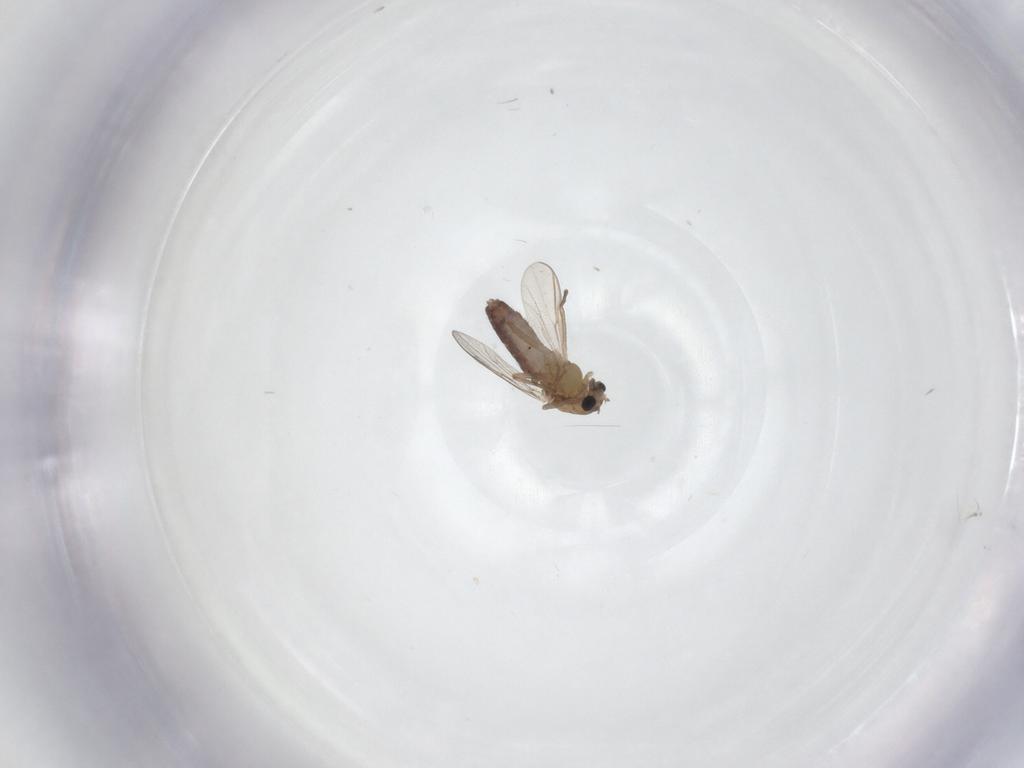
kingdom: Animalia
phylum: Arthropoda
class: Insecta
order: Diptera
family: Chironomidae
